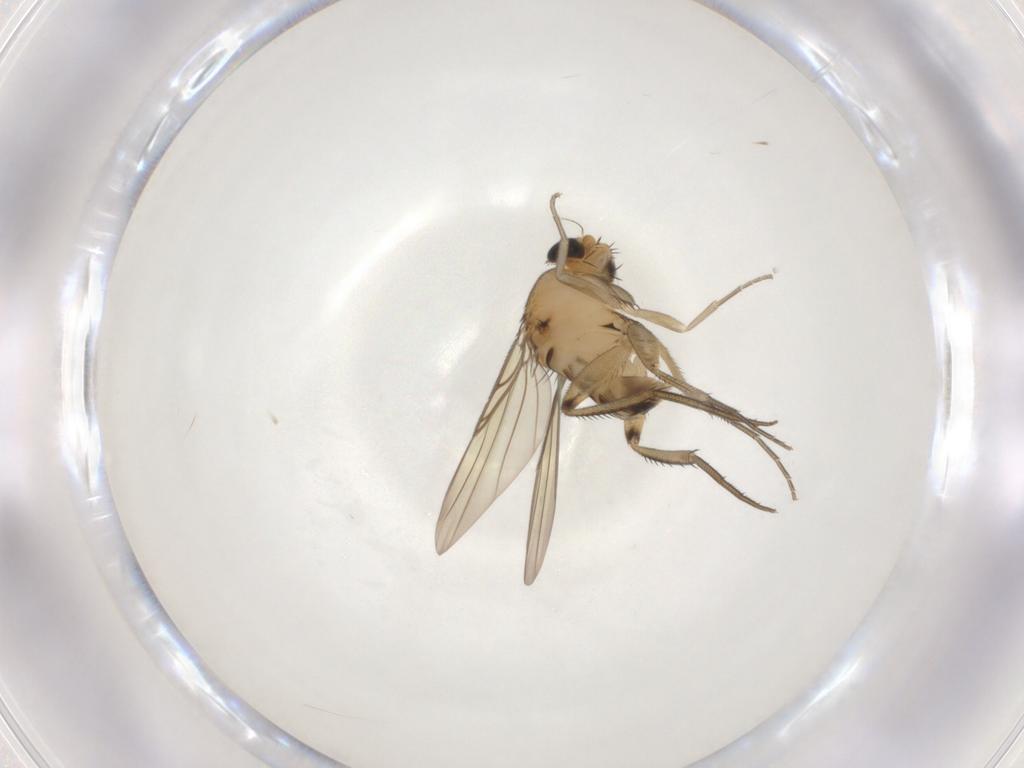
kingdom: Animalia
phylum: Arthropoda
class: Insecta
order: Diptera
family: Phoridae
